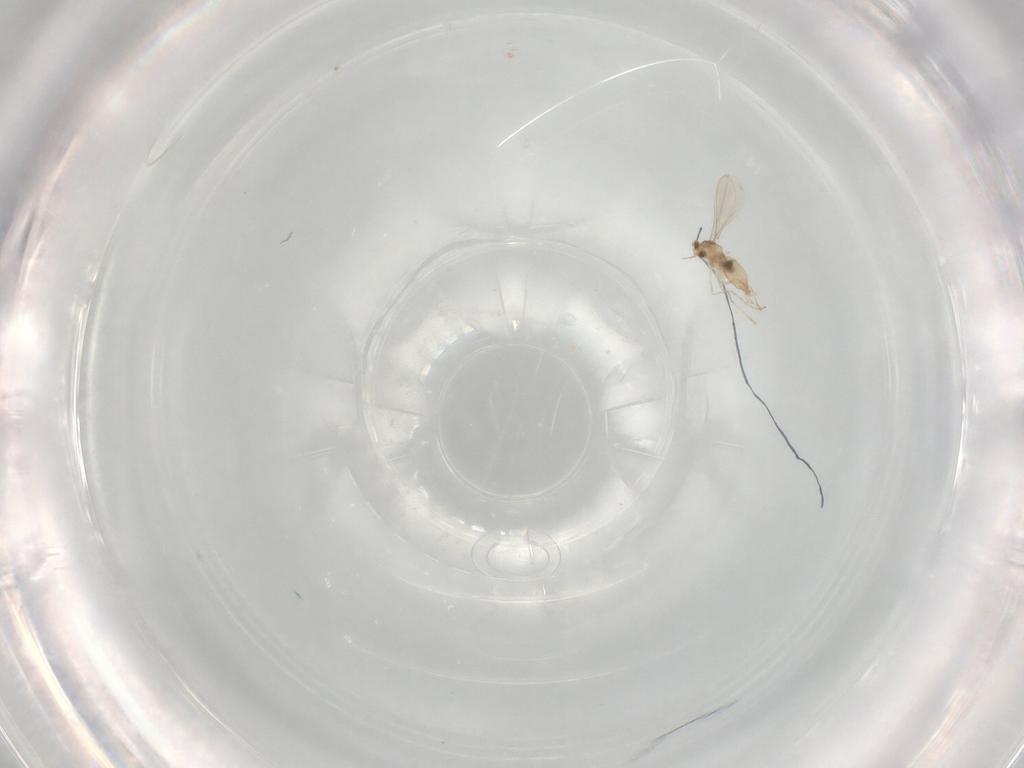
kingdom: Animalia
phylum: Arthropoda
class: Insecta
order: Diptera
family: Cecidomyiidae
